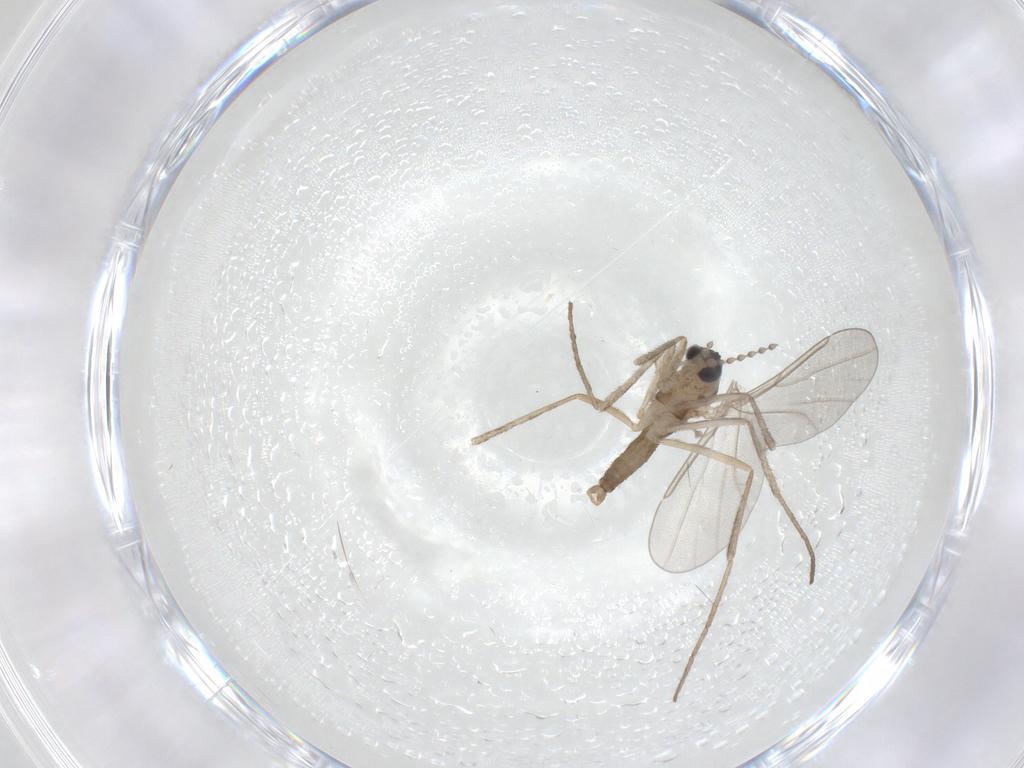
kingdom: Animalia
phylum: Arthropoda
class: Insecta
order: Diptera
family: Cecidomyiidae
